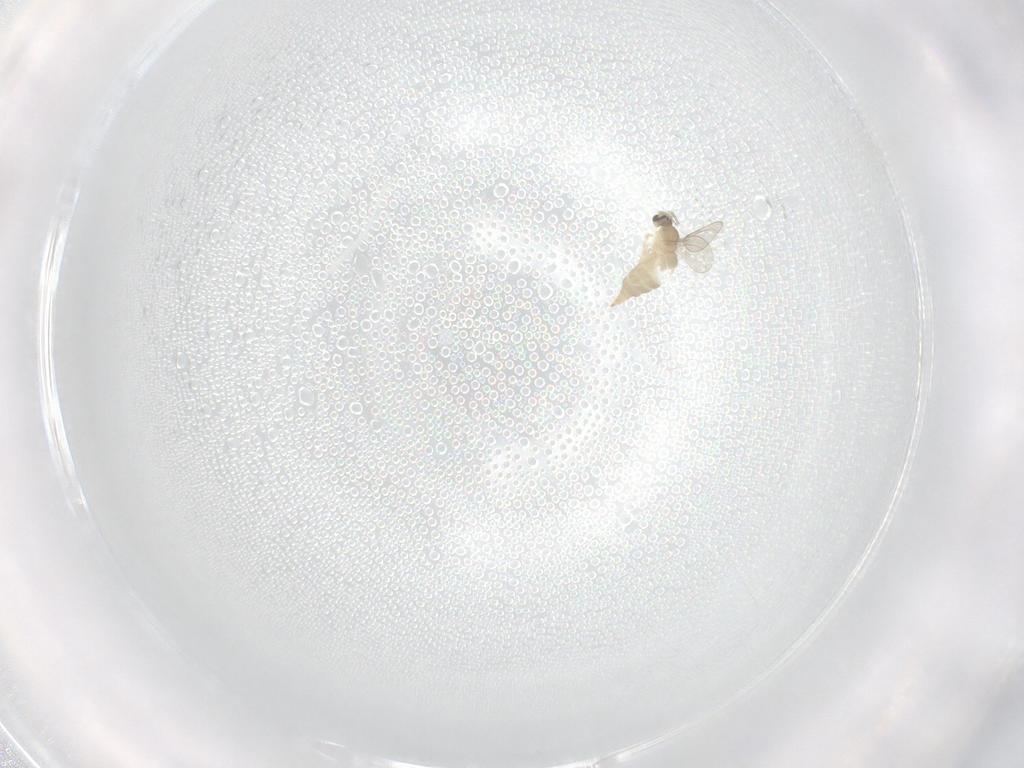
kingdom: Animalia
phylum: Arthropoda
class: Insecta
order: Diptera
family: Cecidomyiidae
